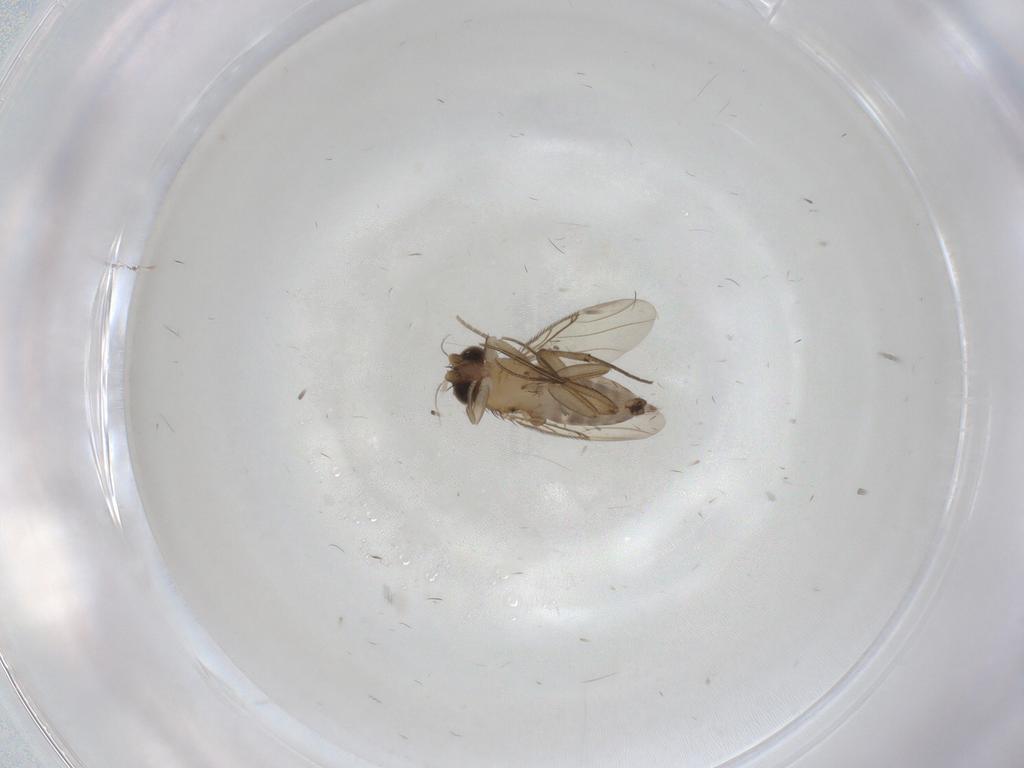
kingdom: Animalia
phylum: Arthropoda
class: Insecta
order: Diptera
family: Phoridae
